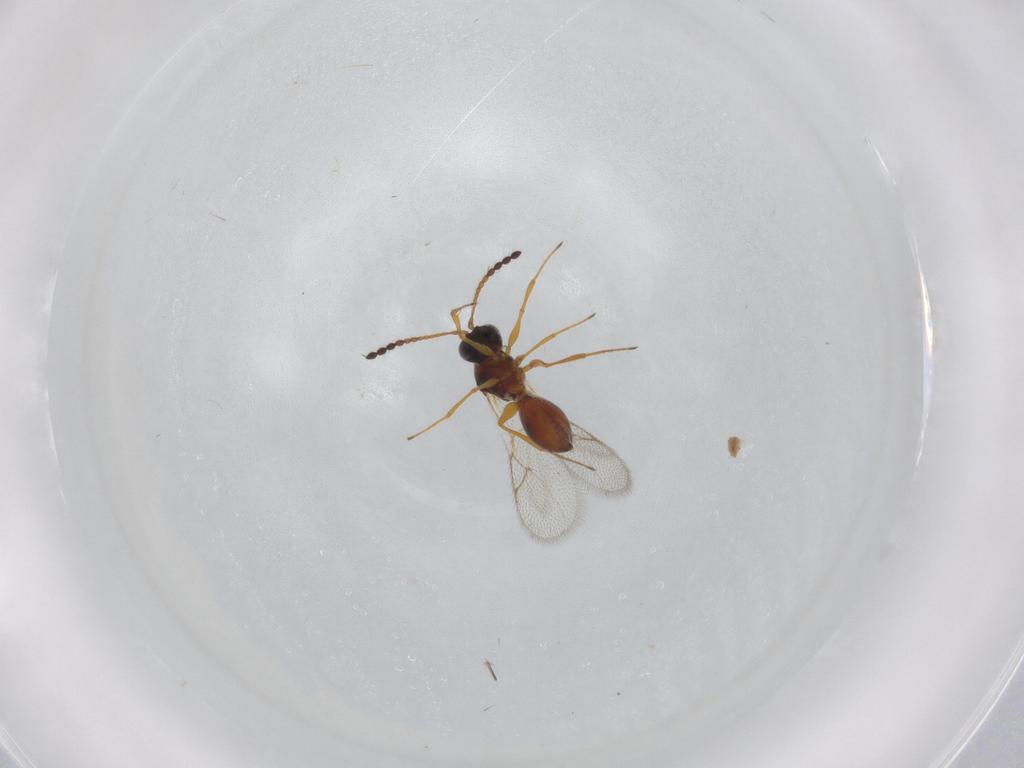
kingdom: Animalia
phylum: Arthropoda
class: Insecta
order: Hymenoptera
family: Figitidae
